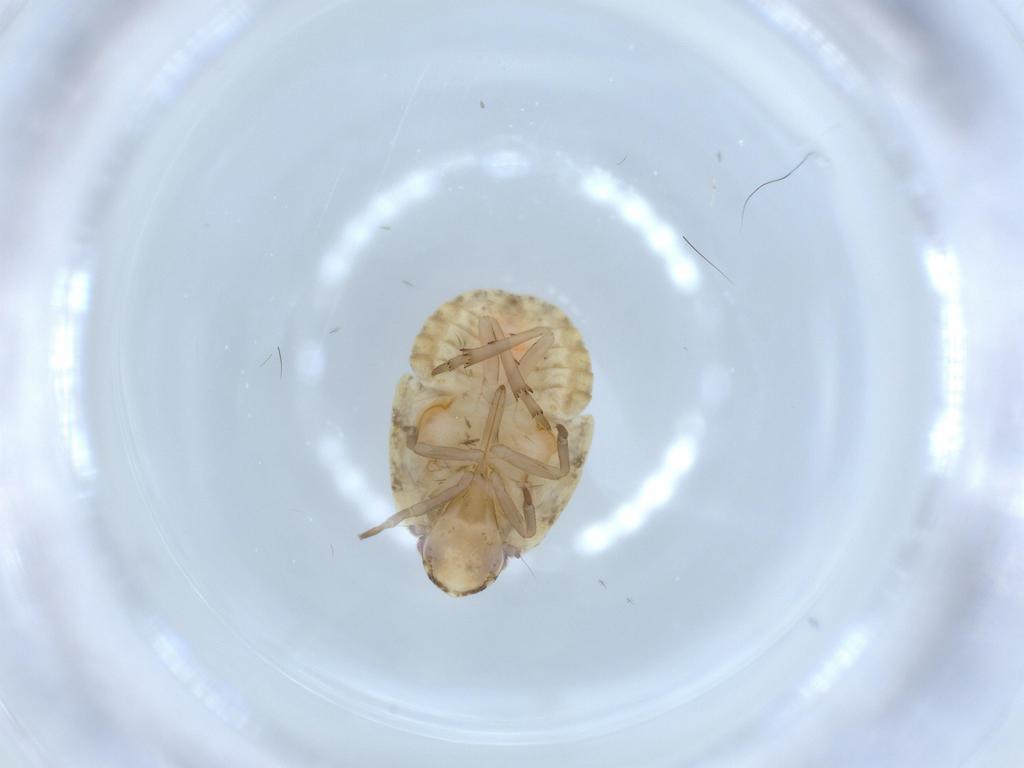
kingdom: Animalia
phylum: Arthropoda
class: Insecta
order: Hemiptera
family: Flatidae
